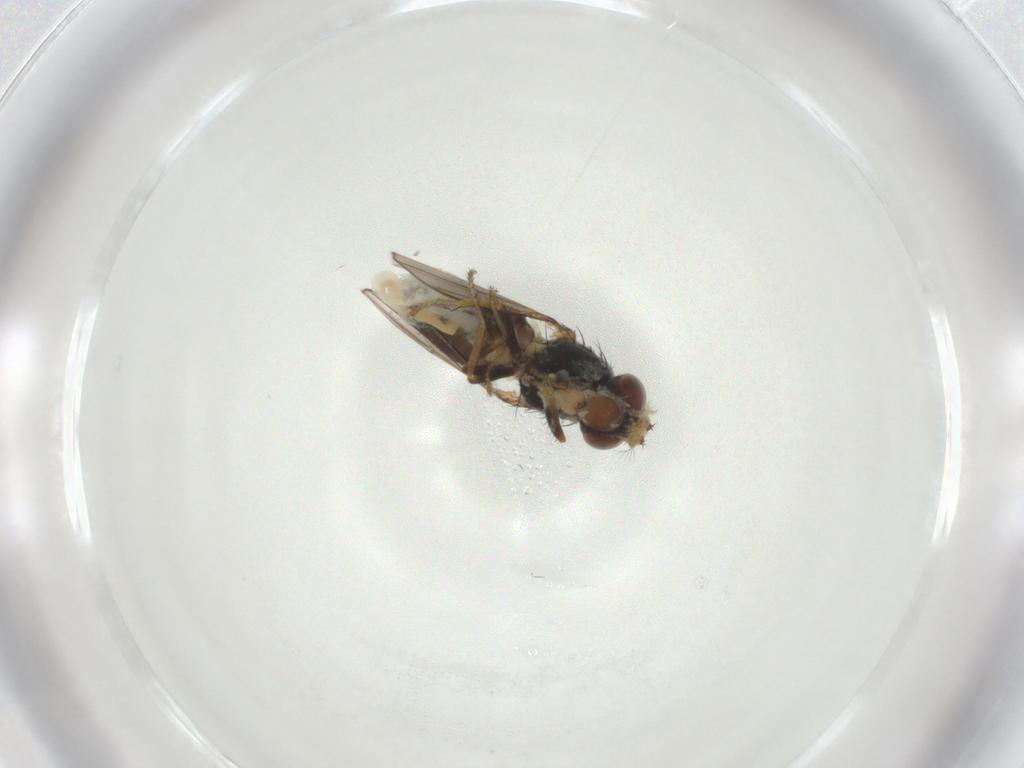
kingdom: Animalia
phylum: Arthropoda
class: Insecta
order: Diptera
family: Ephydridae
